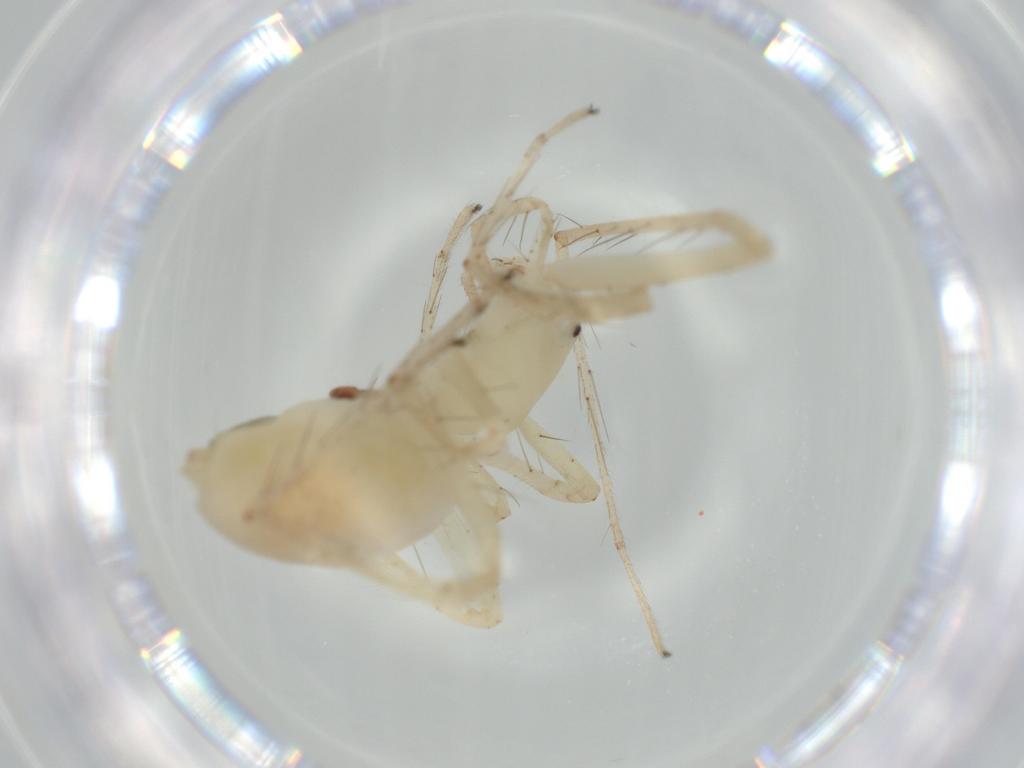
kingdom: Animalia
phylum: Arthropoda
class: Arachnida
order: Araneae
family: Anyphaenidae
